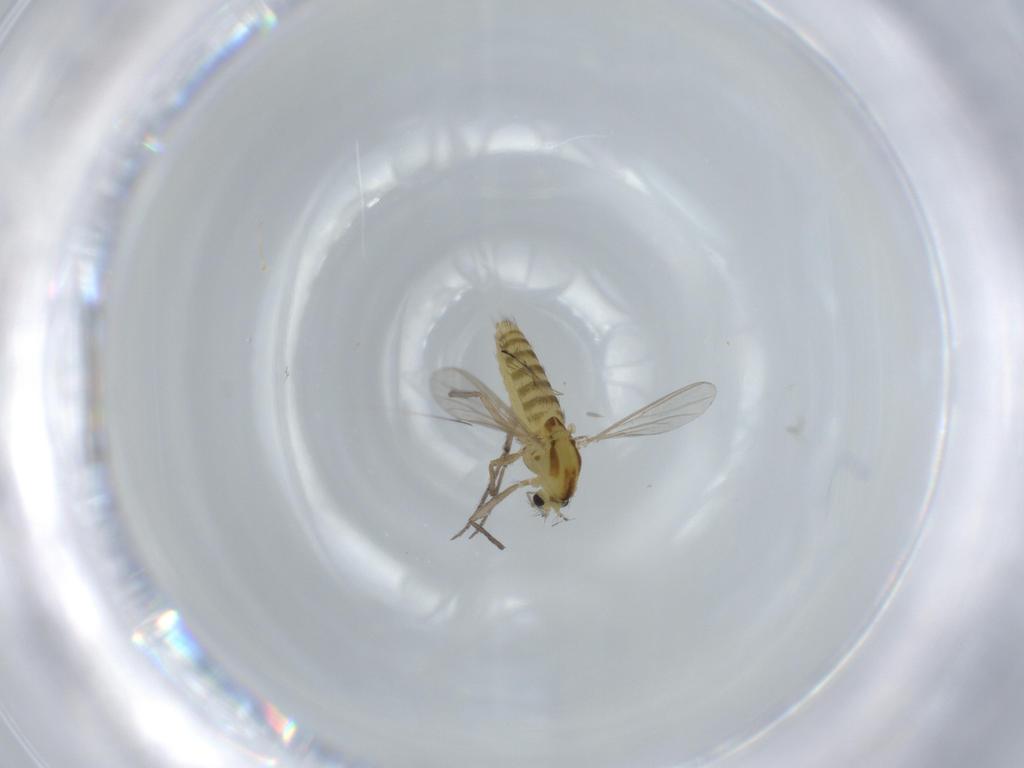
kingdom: Animalia
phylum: Arthropoda
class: Insecta
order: Diptera
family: Chironomidae
